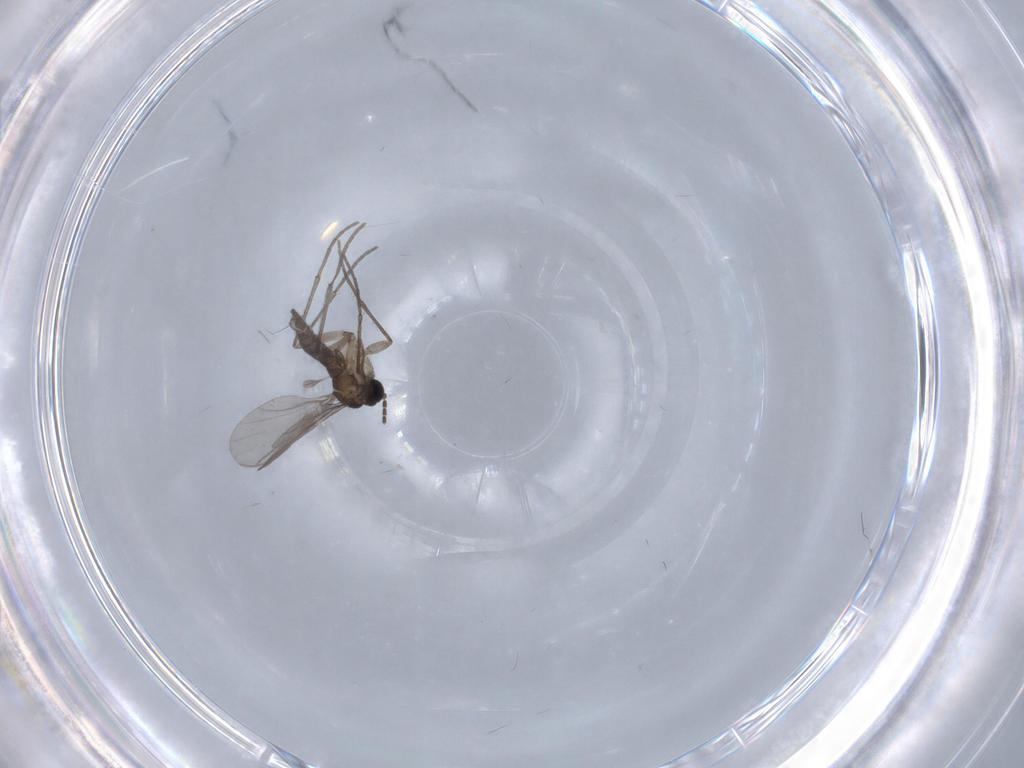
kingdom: Animalia
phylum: Arthropoda
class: Insecta
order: Diptera
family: Sciaridae
